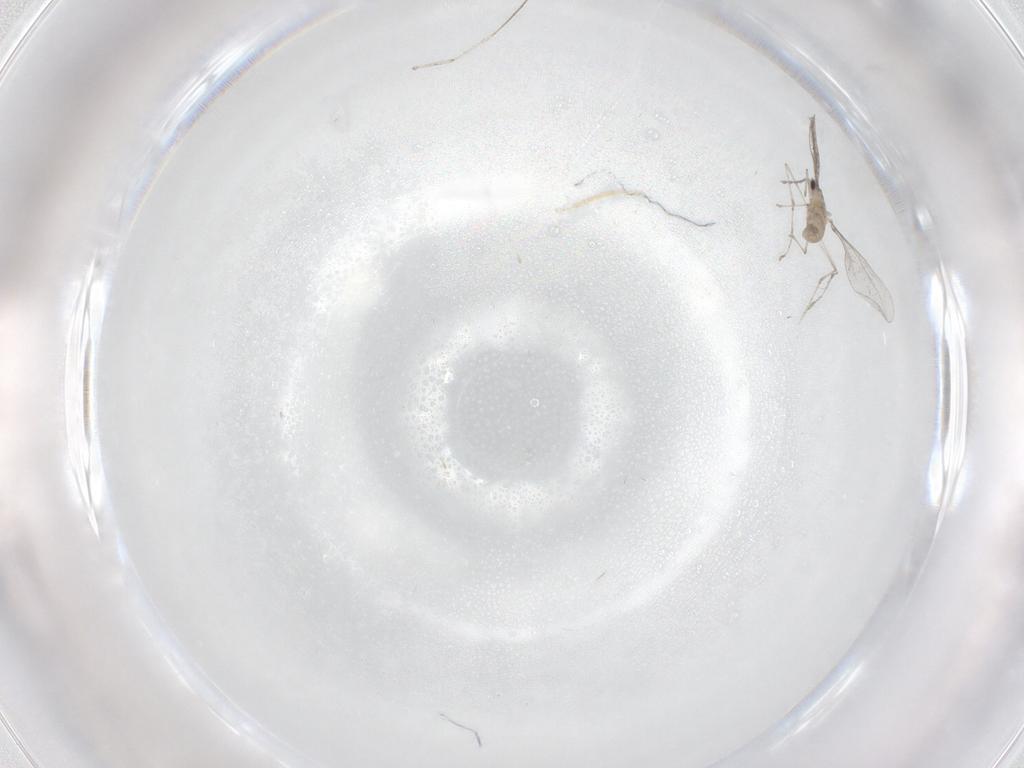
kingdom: Animalia
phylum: Arthropoda
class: Insecta
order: Diptera
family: Cecidomyiidae
